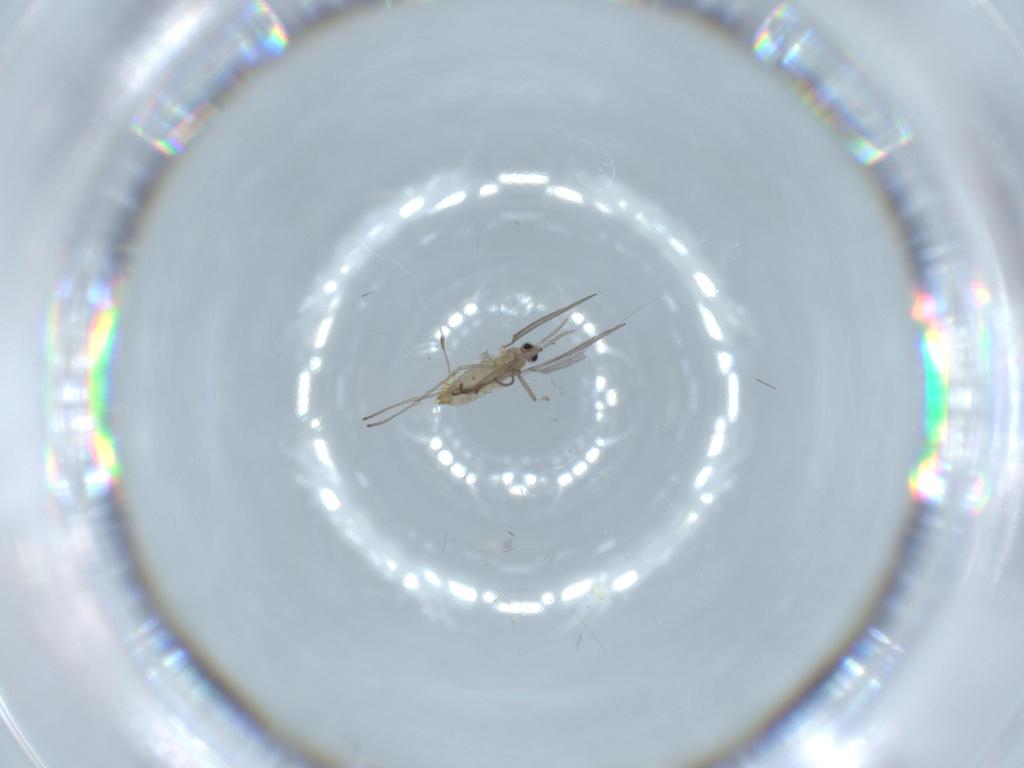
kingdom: Animalia
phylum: Arthropoda
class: Insecta
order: Diptera
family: Dolichopodidae
